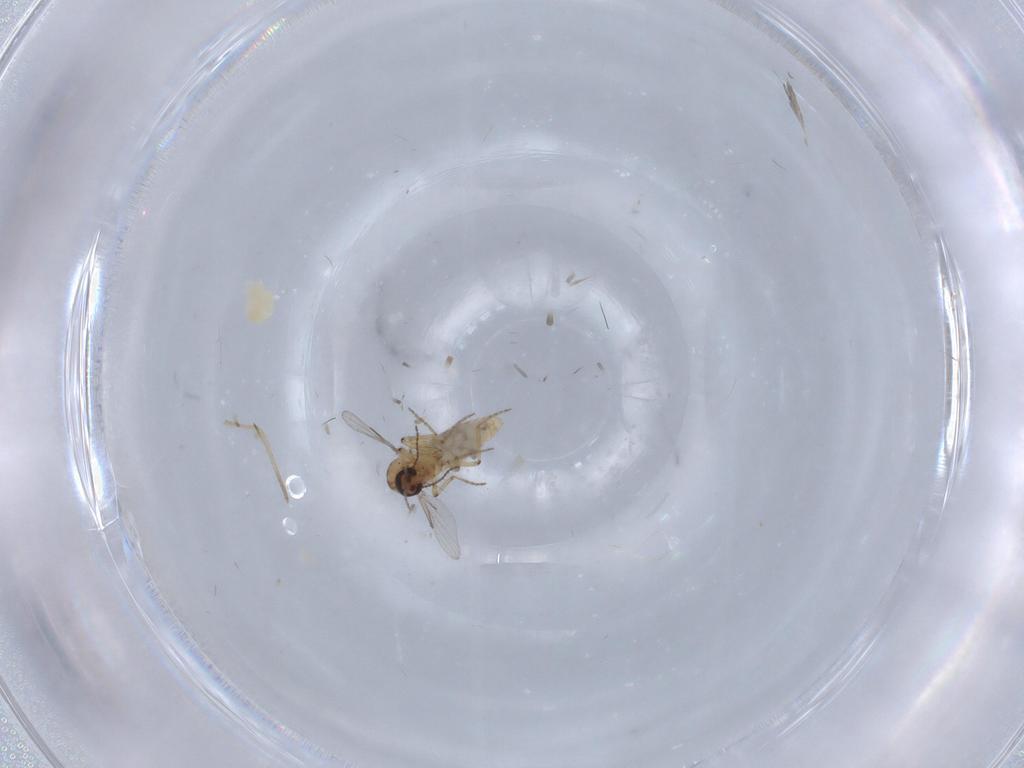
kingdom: Animalia
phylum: Arthropoda
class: Insecta
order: Diptera
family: Ceratopogonidae
